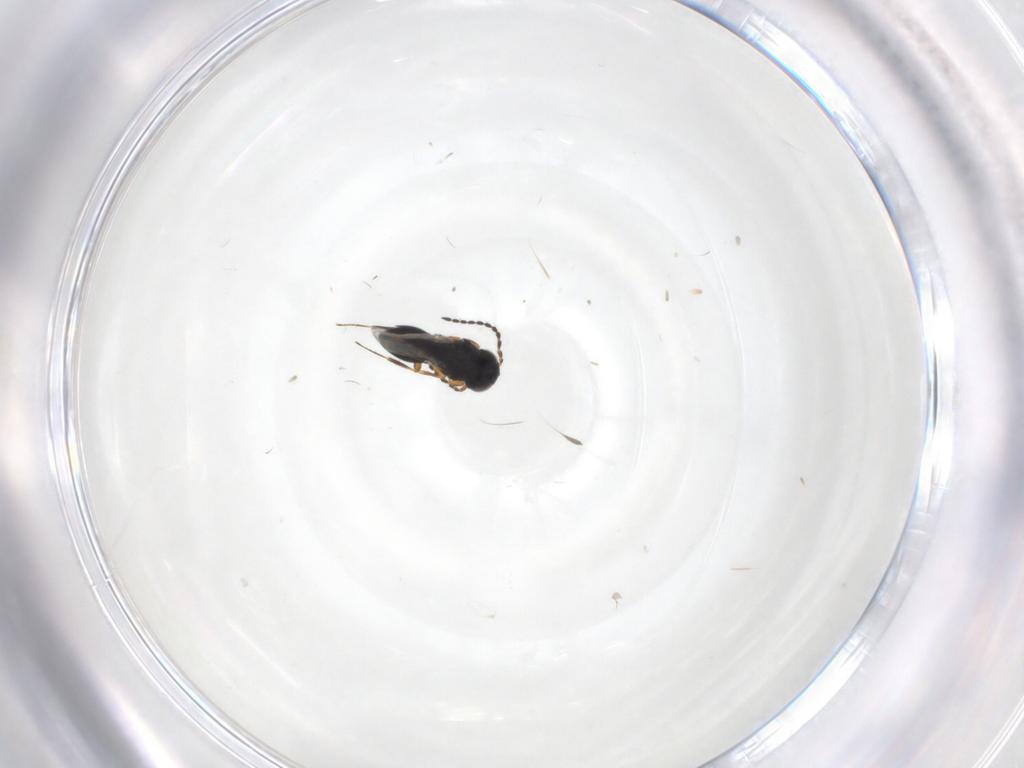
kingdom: Animalia
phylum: Arthropoda
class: Insecta
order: Hymenoptera
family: Scelionidae
